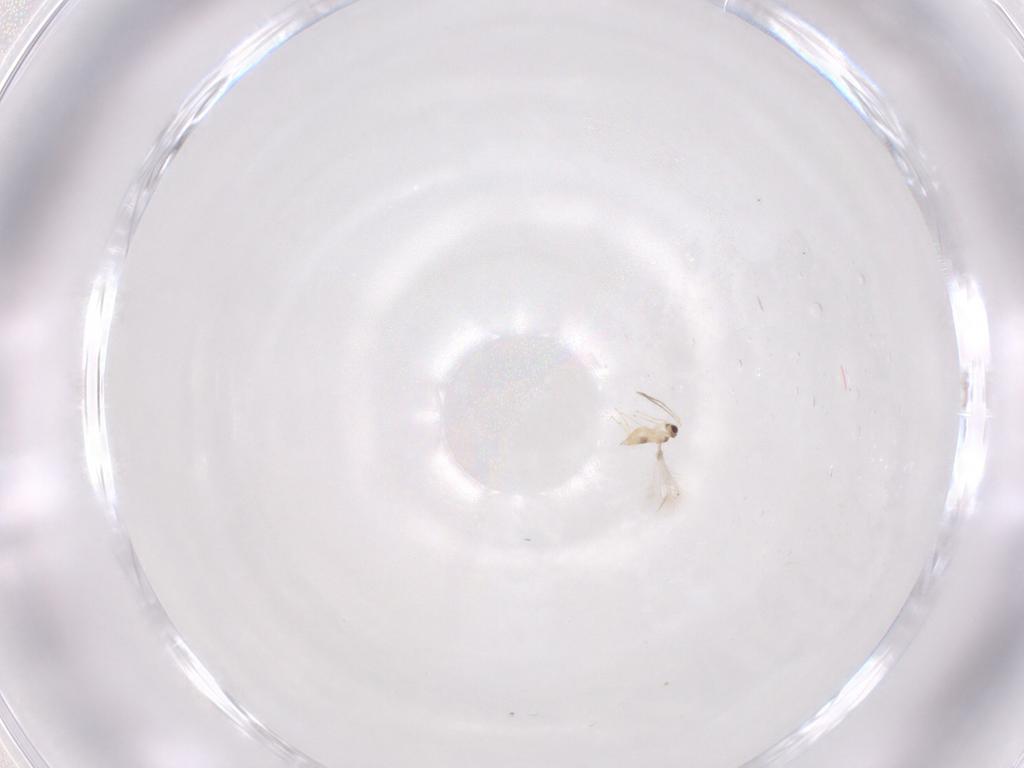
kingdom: Animalia
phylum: Arthropoda
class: Insecta
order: Hymenoptera
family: Mymaridae
